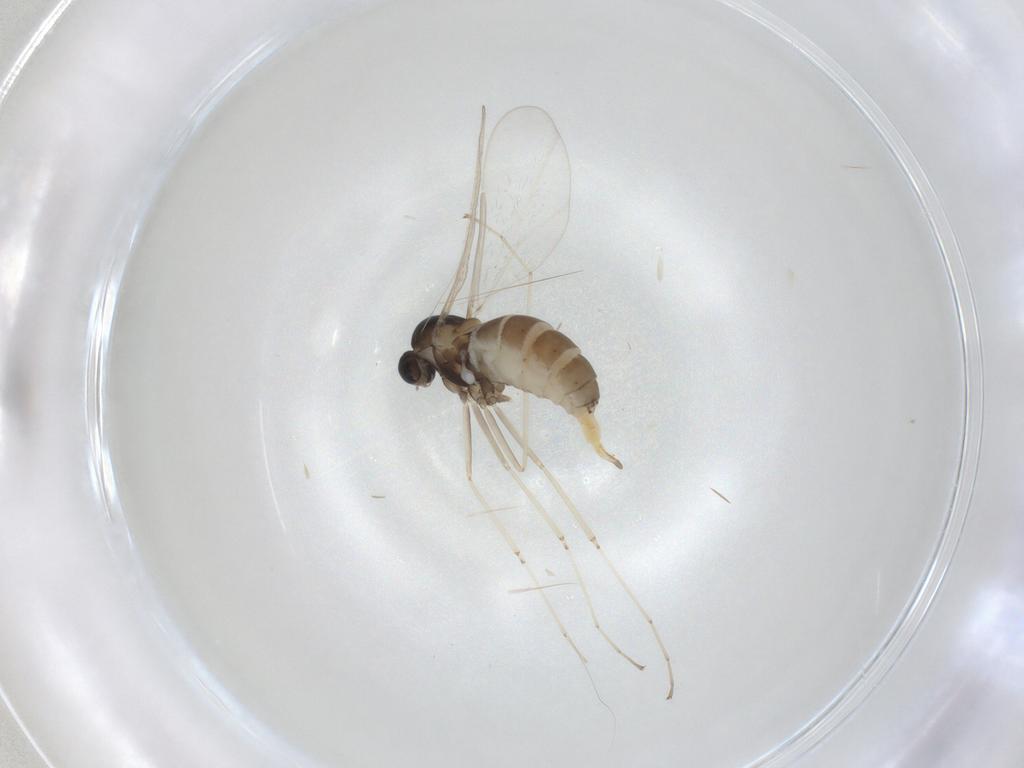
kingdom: Animalia
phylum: Arthropoda
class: Insecta
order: Diptera
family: Cecidomyiidae
